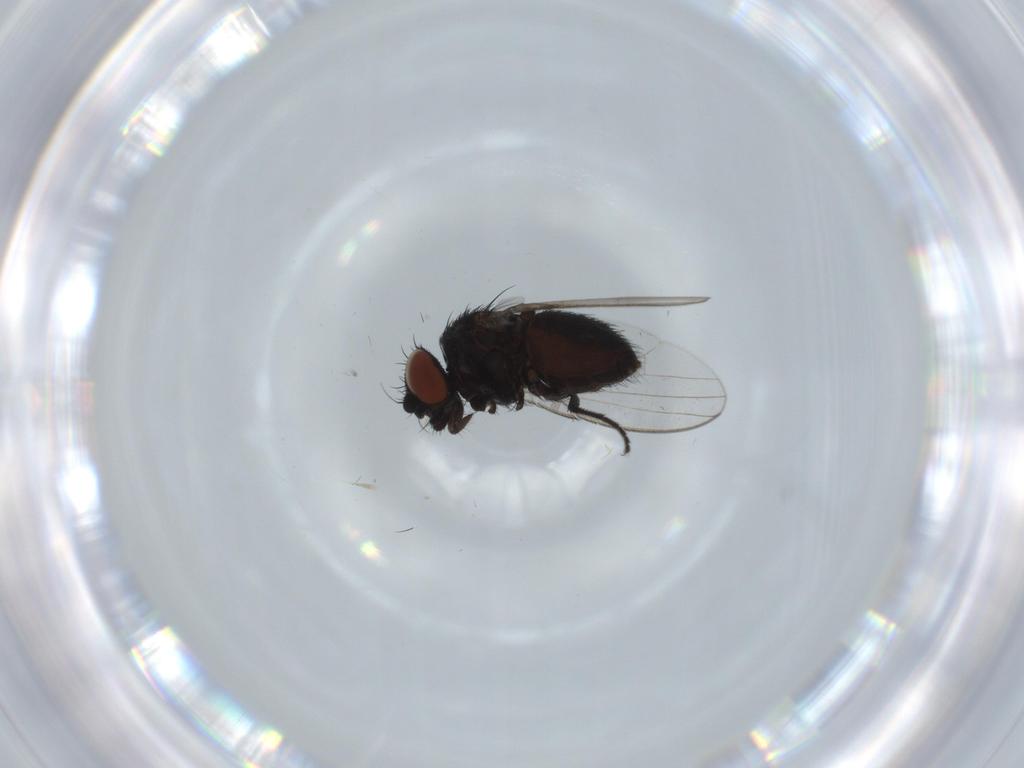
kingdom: Animalia
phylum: Arthropoda
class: Insecta
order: Diptera
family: Milichiidae
